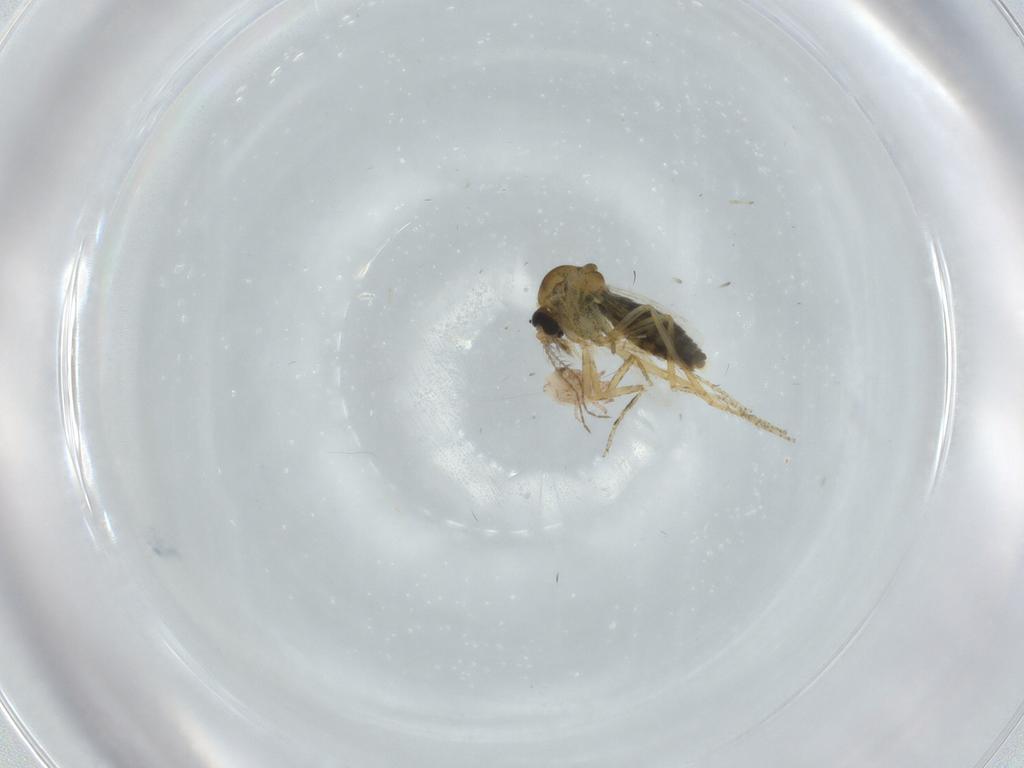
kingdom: Animalia
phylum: Arthropoda
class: Insecta
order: Diptera
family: Ceratopogonidae
